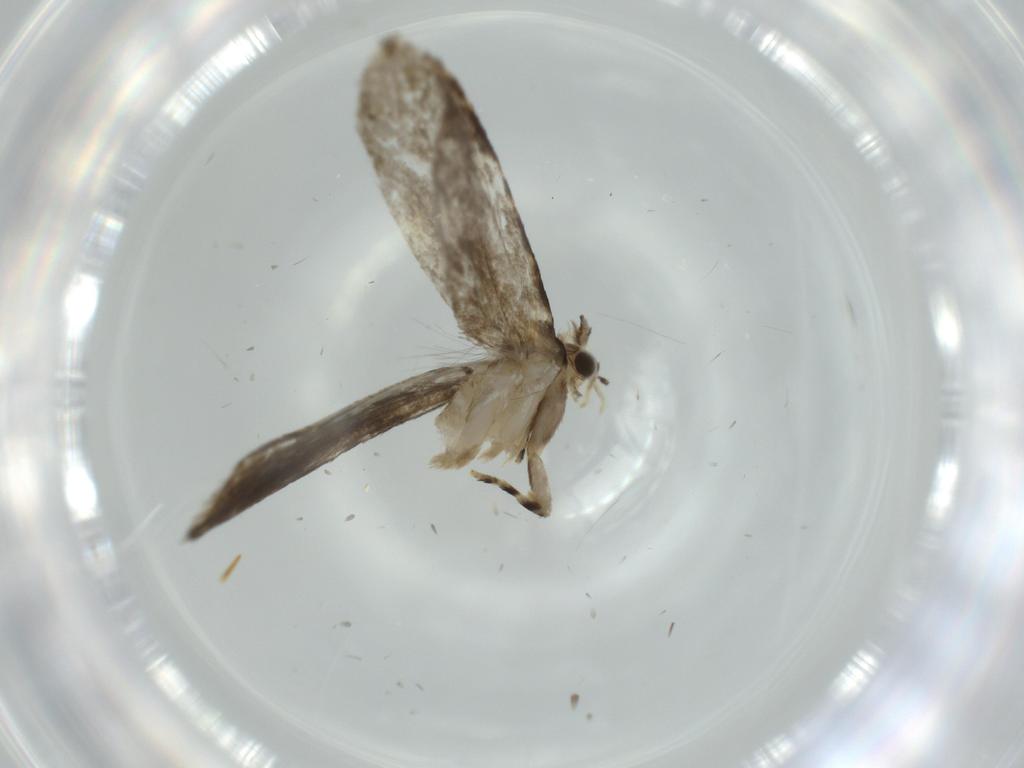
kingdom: Animalia
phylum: Arthropoda
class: Insecta
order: Lepidoptera
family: Tineidae
